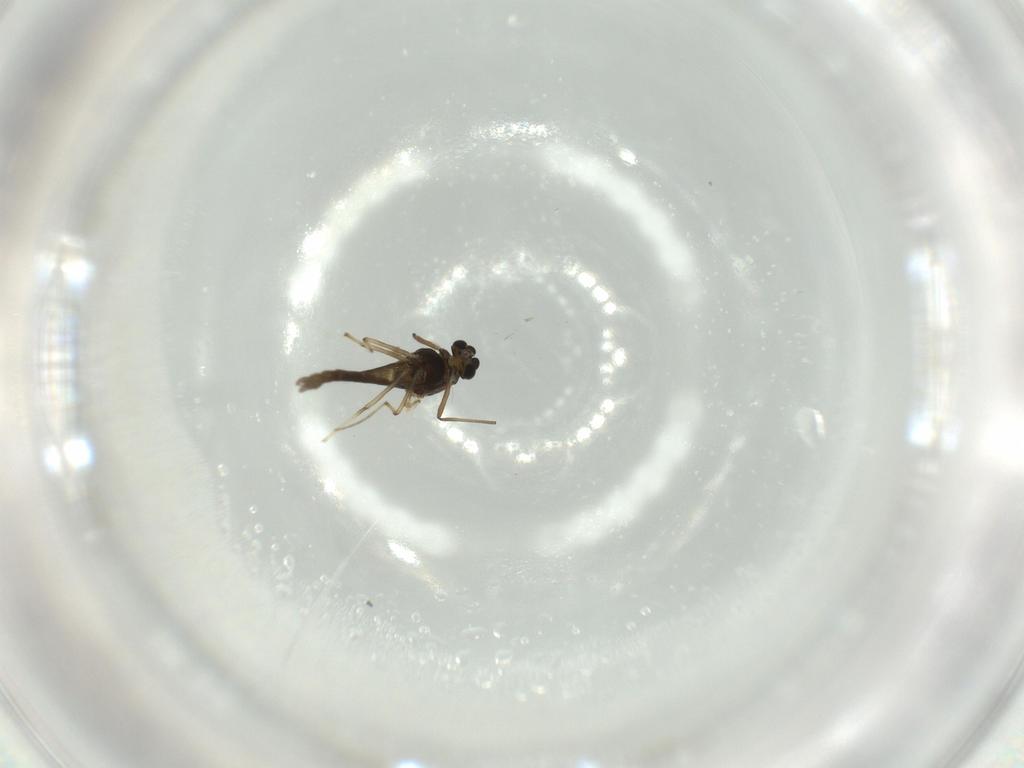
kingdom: Animalia
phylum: Arthropoda
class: Insecta
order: Diptera
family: Chironomidae
